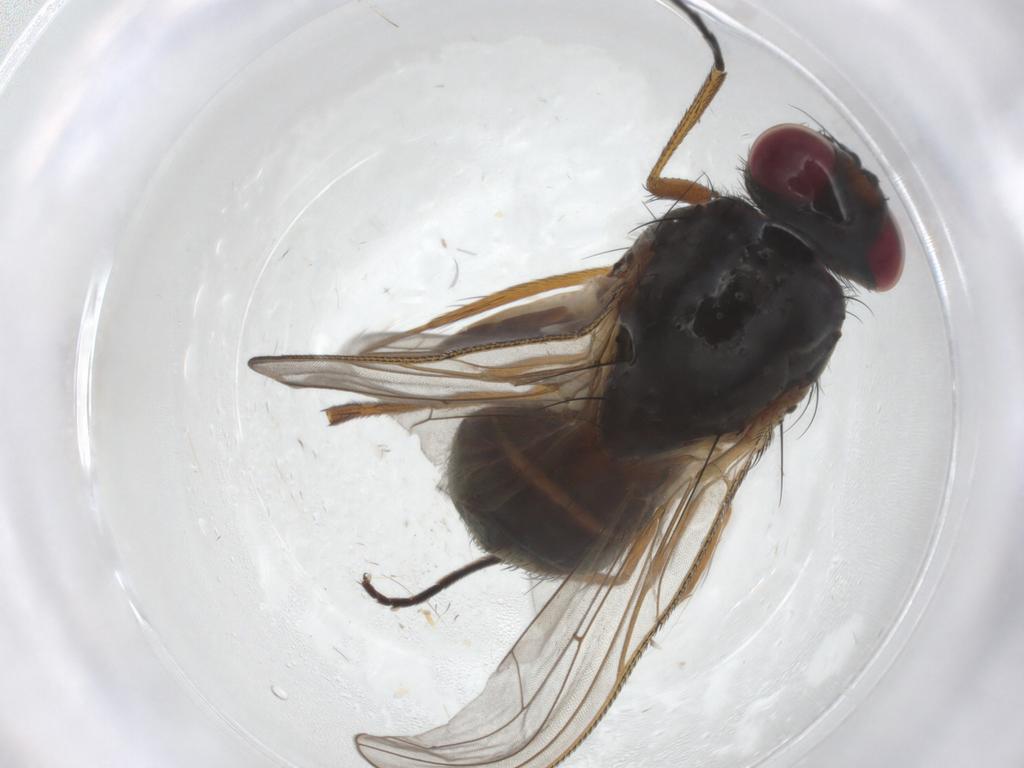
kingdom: Animalia
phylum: Arthropoda
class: Insecta
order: Diptera
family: Anthomyiidae
